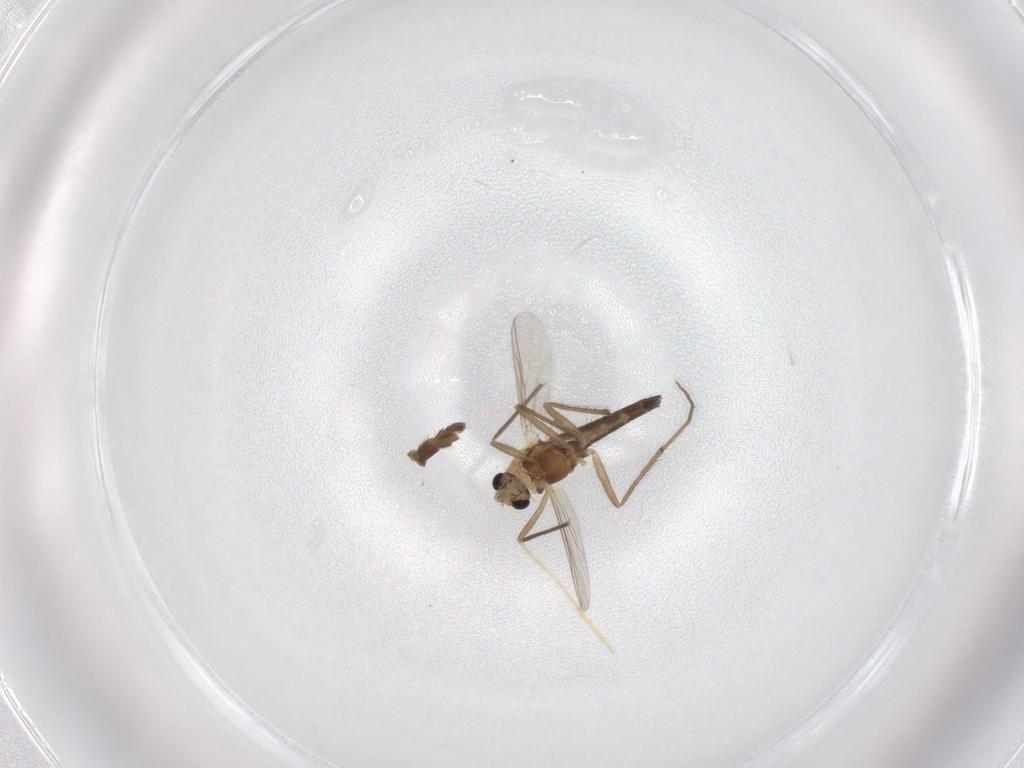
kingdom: Animalia
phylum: Arthropoda
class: Insecta
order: Diptera
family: Chironomidae
